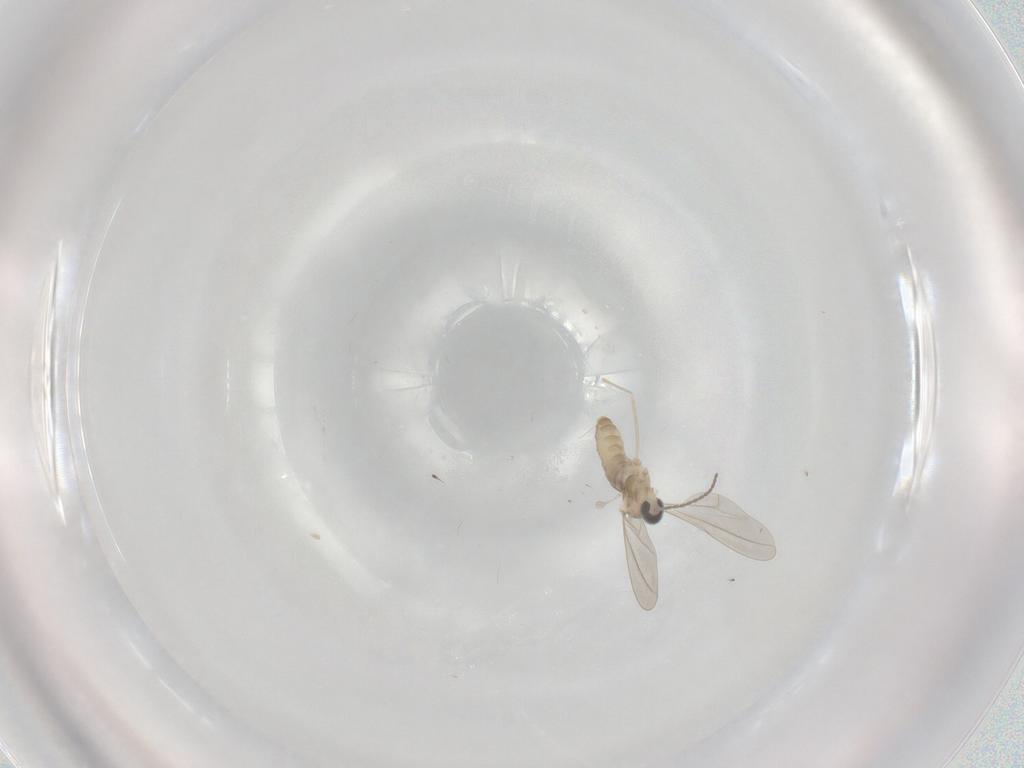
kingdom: Animalia
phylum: Arthropoda
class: Insecta
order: Diptera
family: Cecidomyiidae
